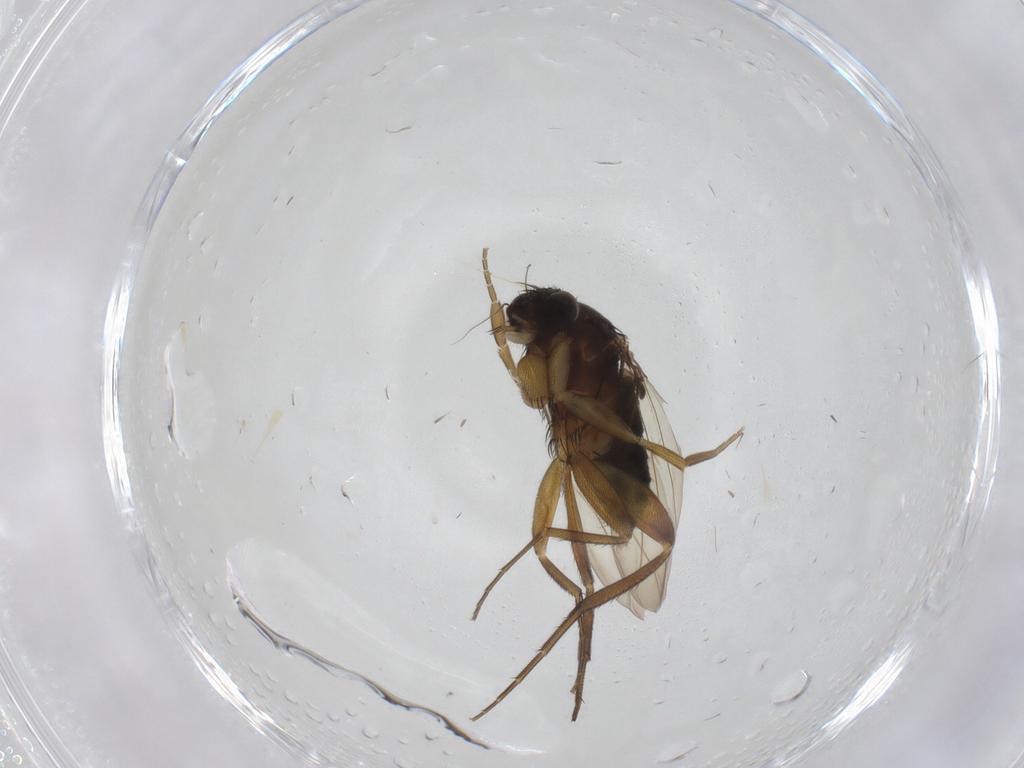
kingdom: Animalia
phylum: Arthropoda
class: Insecta
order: Diptera
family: Phoridae
